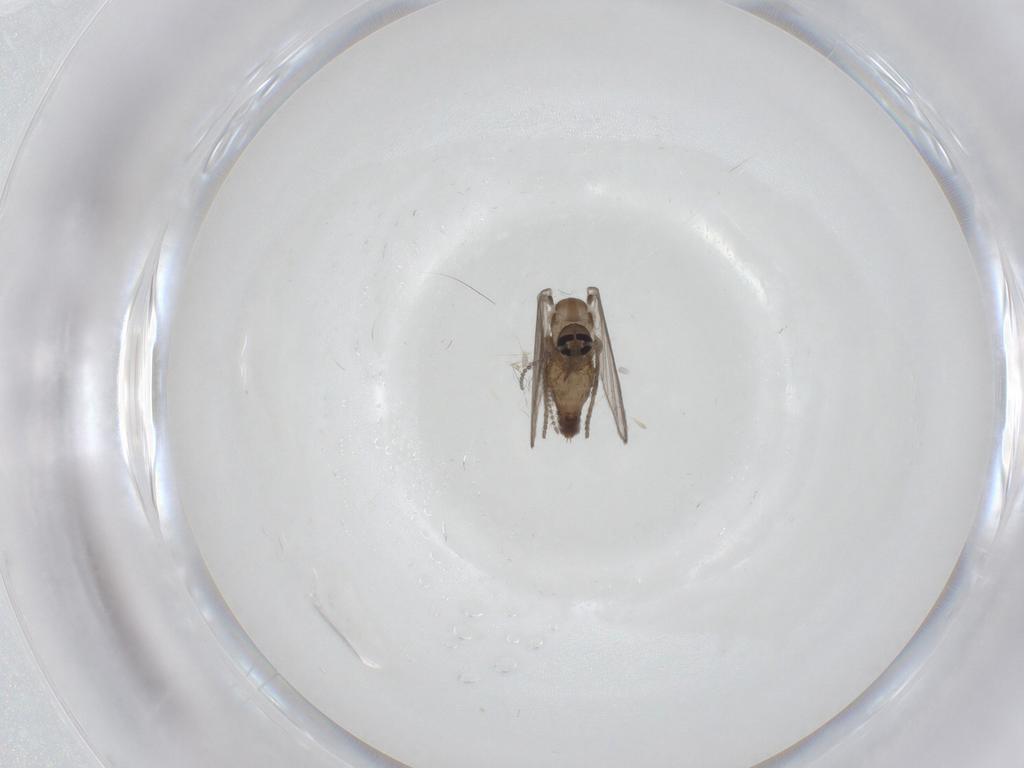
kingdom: Animalia
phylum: Arthropoda
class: Insecta
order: Diptera
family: Psychodidae
